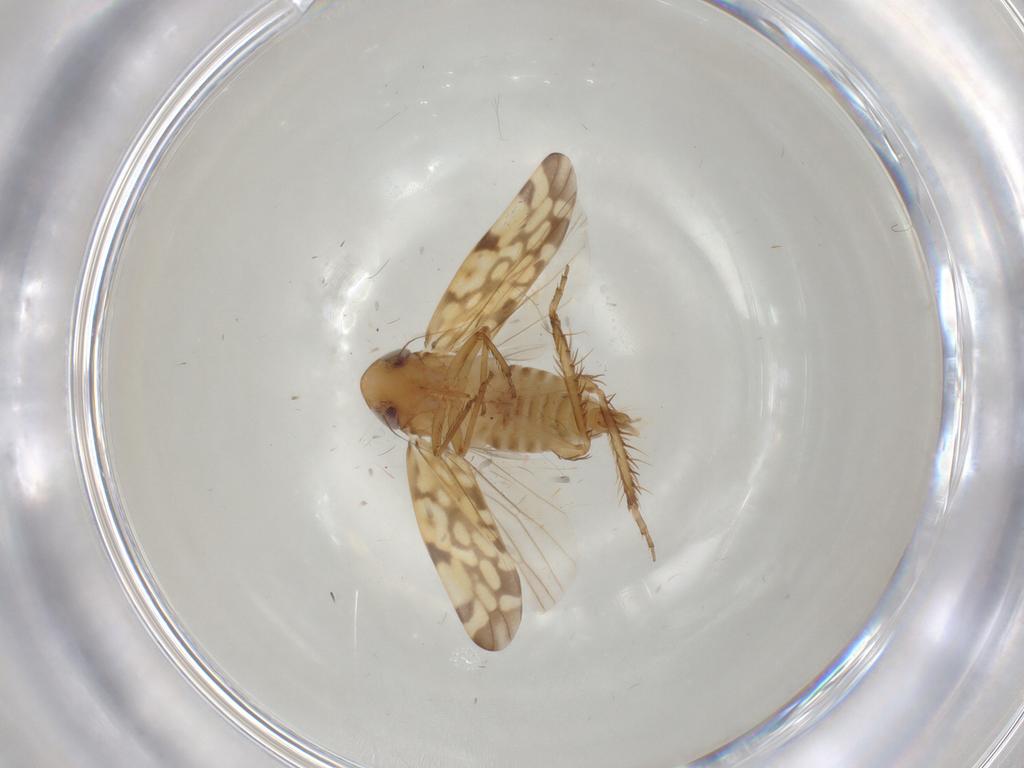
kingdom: Animalia
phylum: Arthropoda
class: Insecta
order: Hemiptera
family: Cicadellidae
